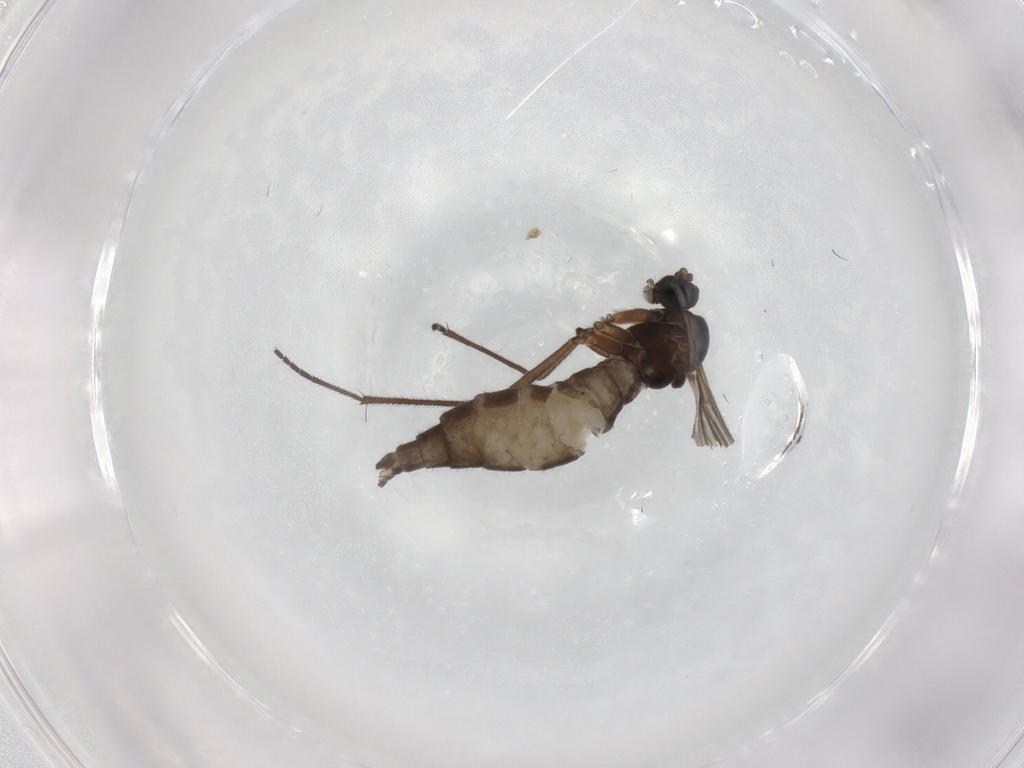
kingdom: Animalia
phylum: Arthropoda
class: Insecta
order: Diptera
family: Sciaridae
